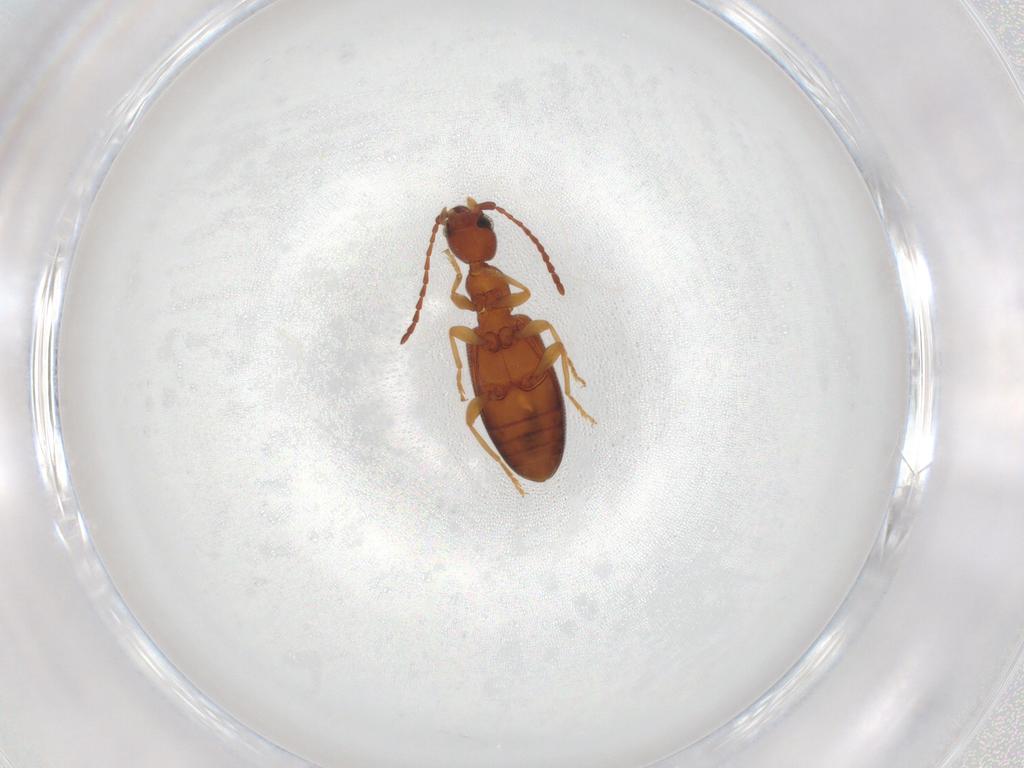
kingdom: Animalia
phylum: Arthropoda
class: Insecta
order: Coleoptera
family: Anthicidae
